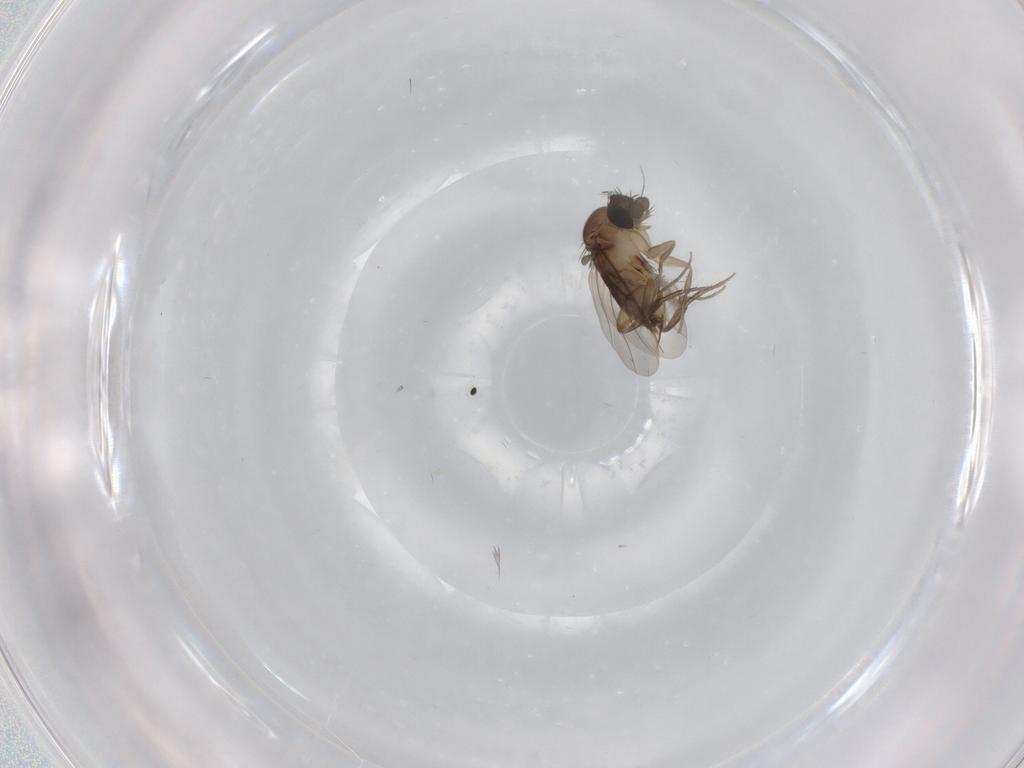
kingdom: Animalia
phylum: Arthropoda
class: Insecta
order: Diptera
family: Phoridae
